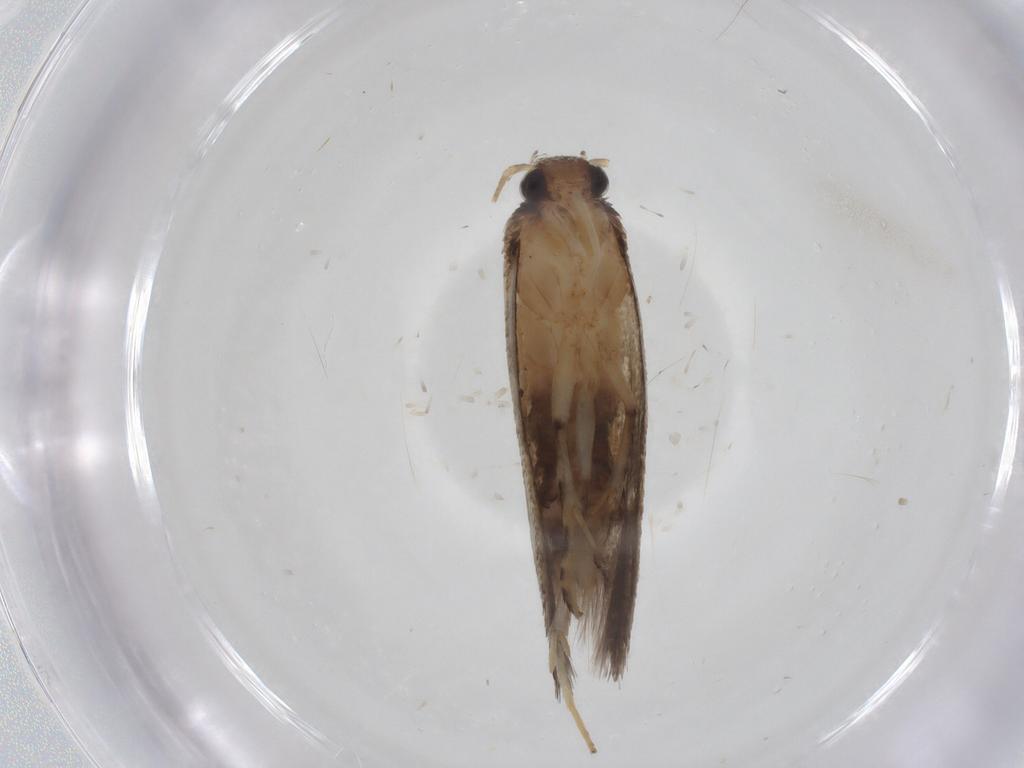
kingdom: Animalia
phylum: Arthropoda
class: Insecta
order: Lepidoptera
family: Oecophoridae
